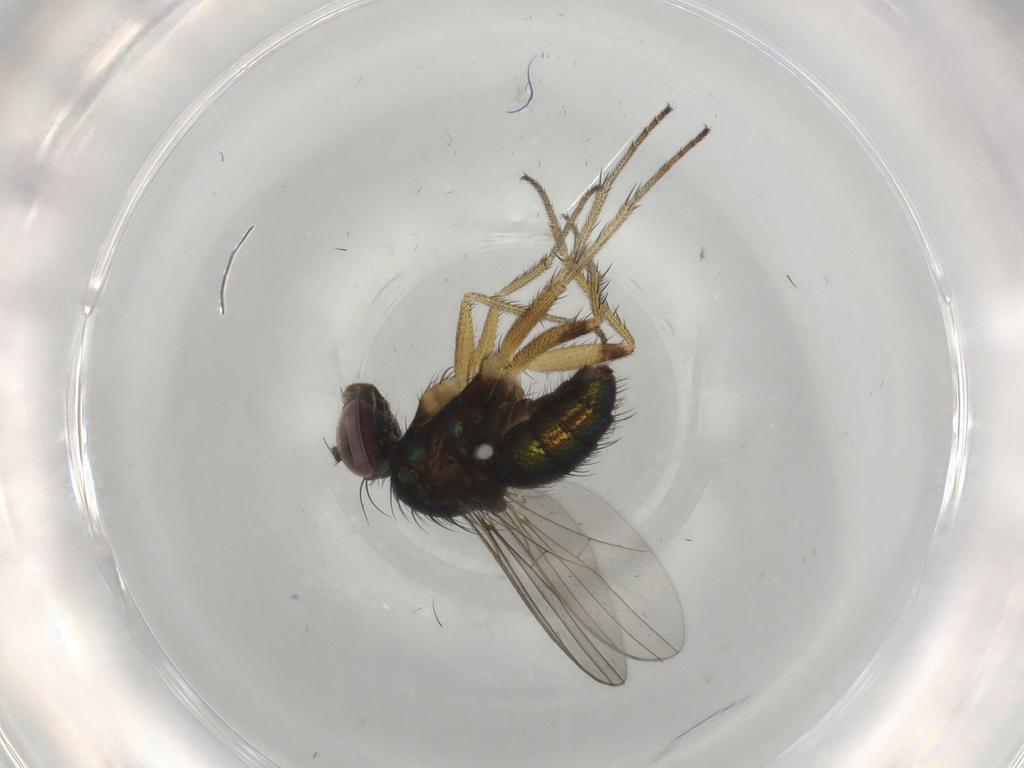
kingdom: Animalia
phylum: Arthropoda
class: Insecta
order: Diptera
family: Dolichopodidae
